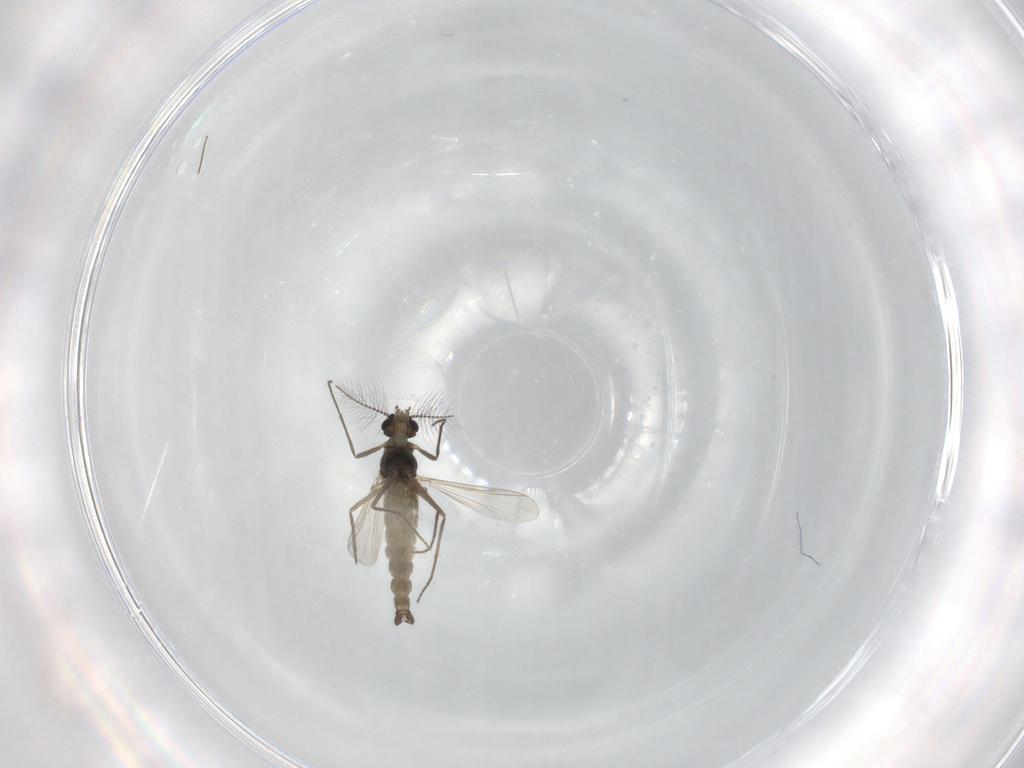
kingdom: Animalia
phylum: Arthropoda
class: Insecta
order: Diptera
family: Chironomidae
